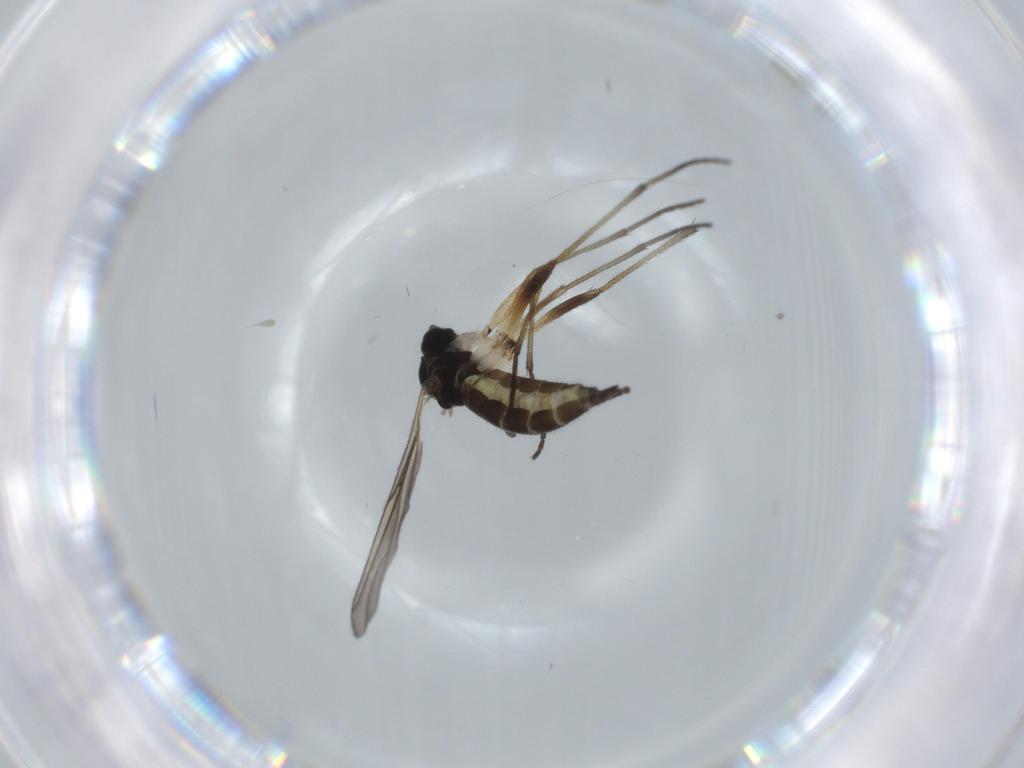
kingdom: Animalia
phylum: Arthropoda
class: Insecta
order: Diptera
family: Sciaridae
